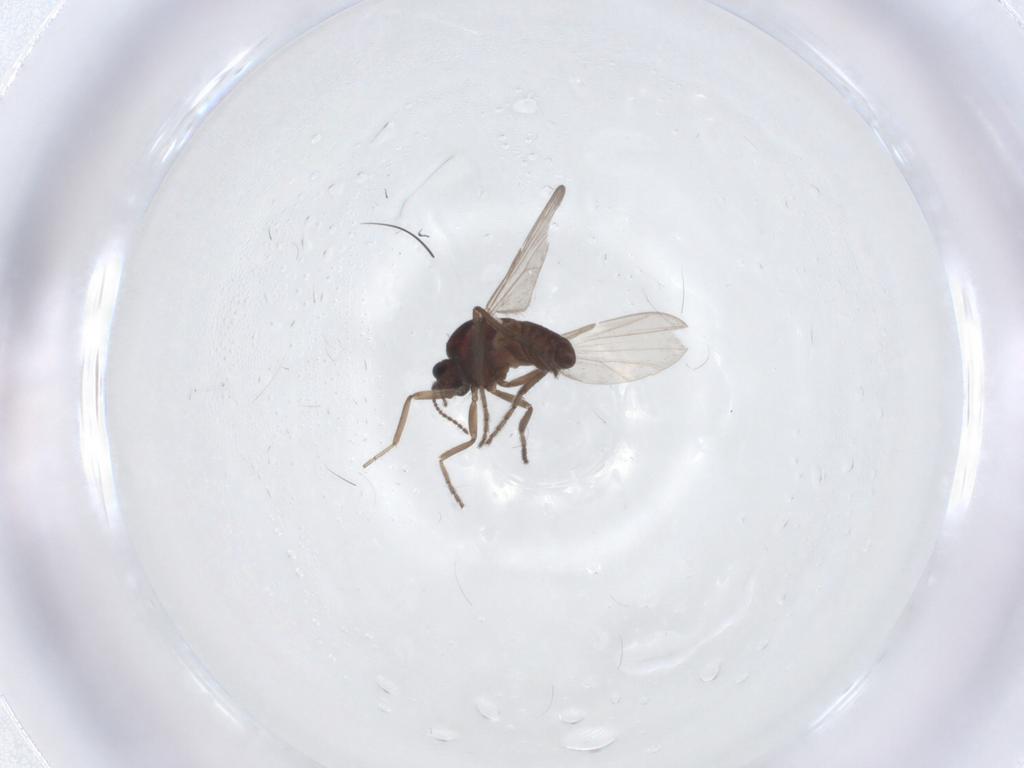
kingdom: Animalia
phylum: Arthropoda
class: Insecta
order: Diptera
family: Ceratopogonidae
